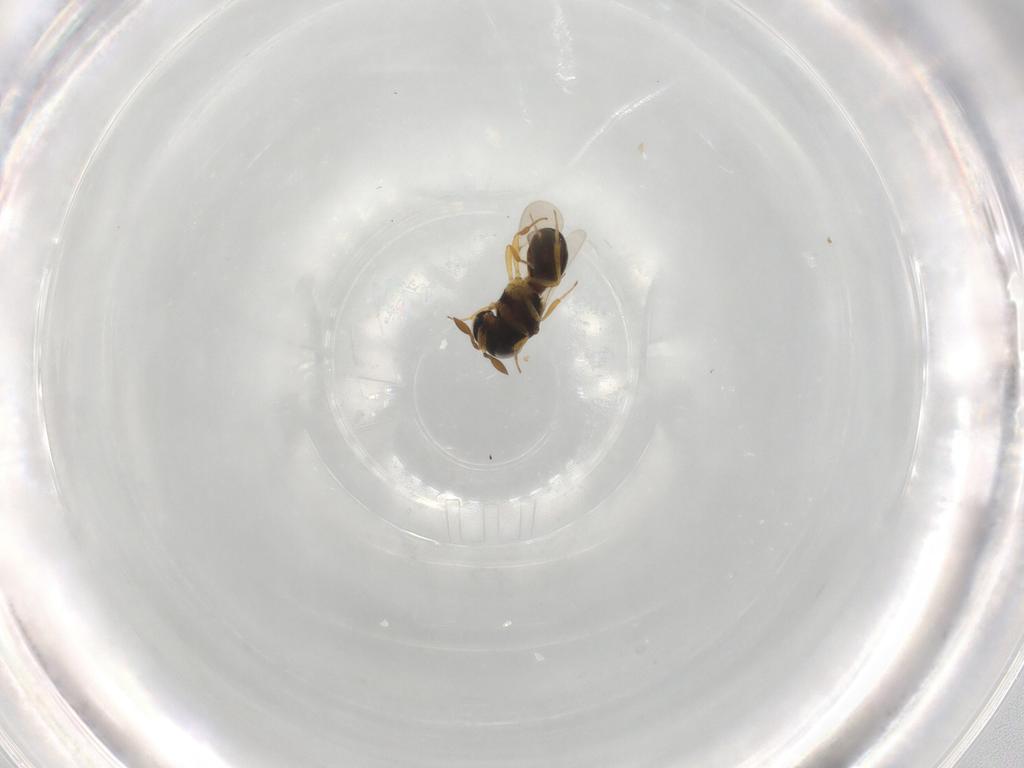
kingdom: Animalia
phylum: Arthropoda
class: Insecta
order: Hymenoptera
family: Scelionidae
